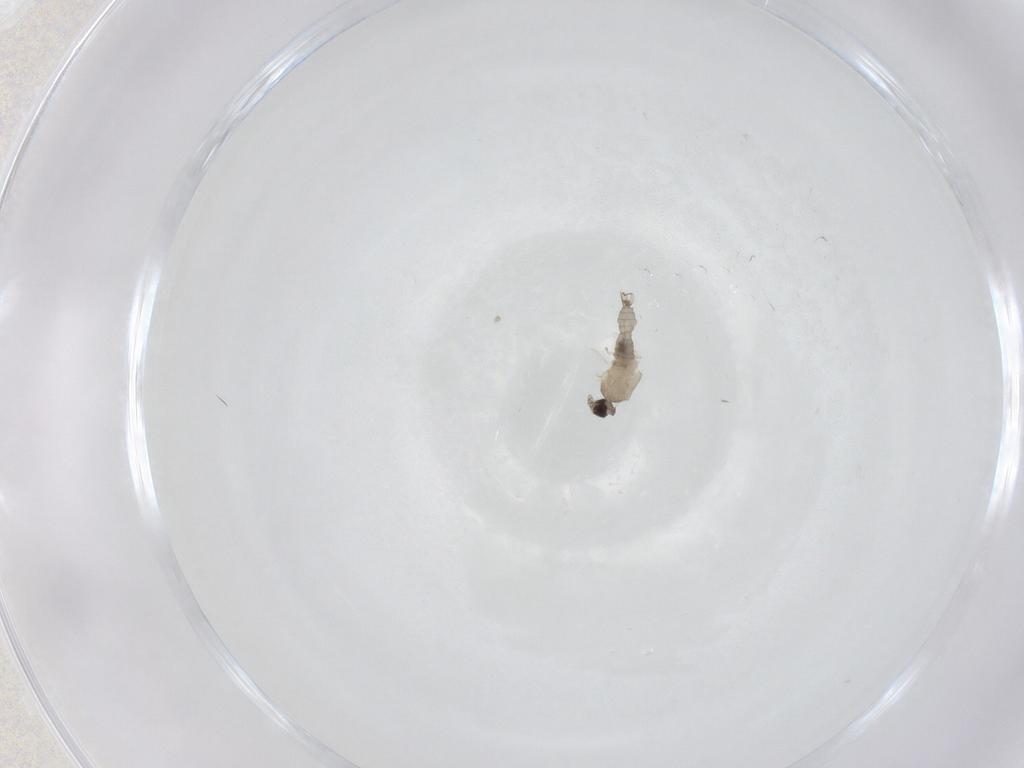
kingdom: Animalia
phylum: Arthropoda
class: Insecta
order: Diptera
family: Cecidomyiidae
